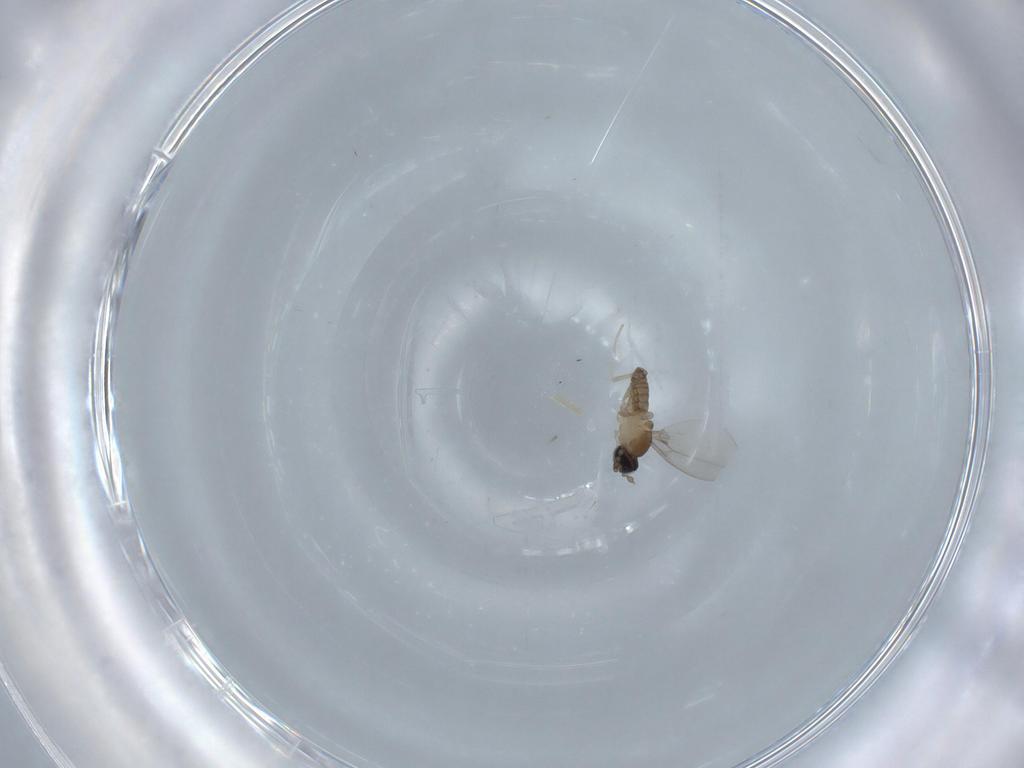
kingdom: Animalia
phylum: Arthropoda
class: Insecta
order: Diptera
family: Cecidomyiidae
